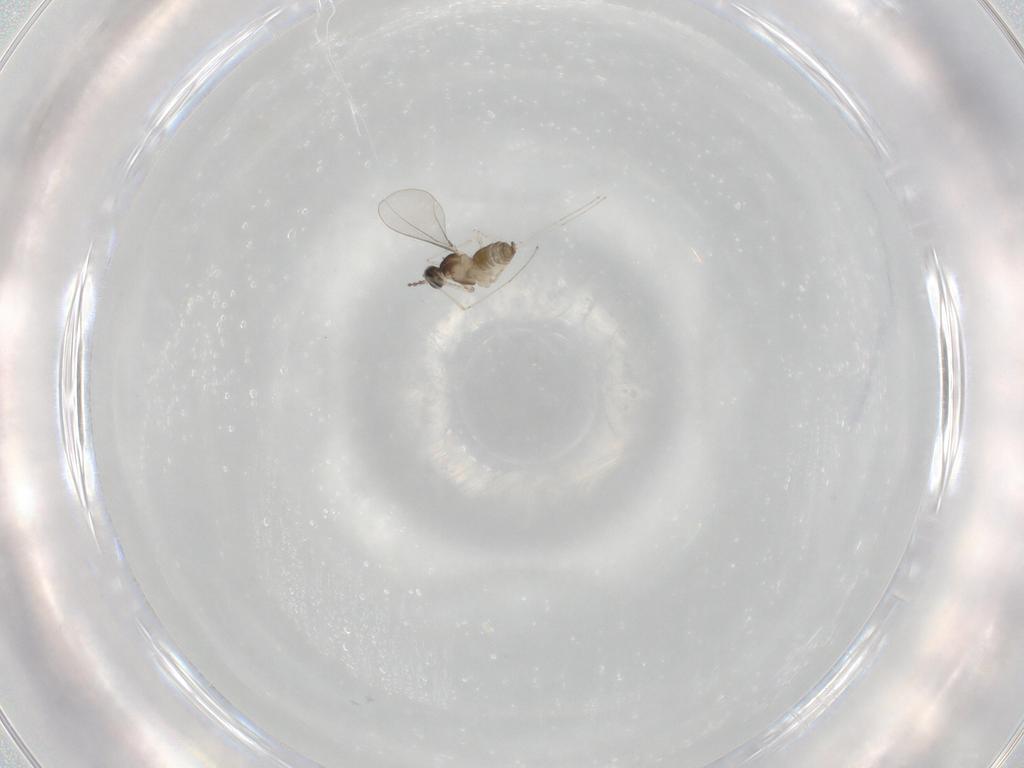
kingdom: Animalia
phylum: Arthropoda
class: Insecta
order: Diptera
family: Cecidomyiidae
